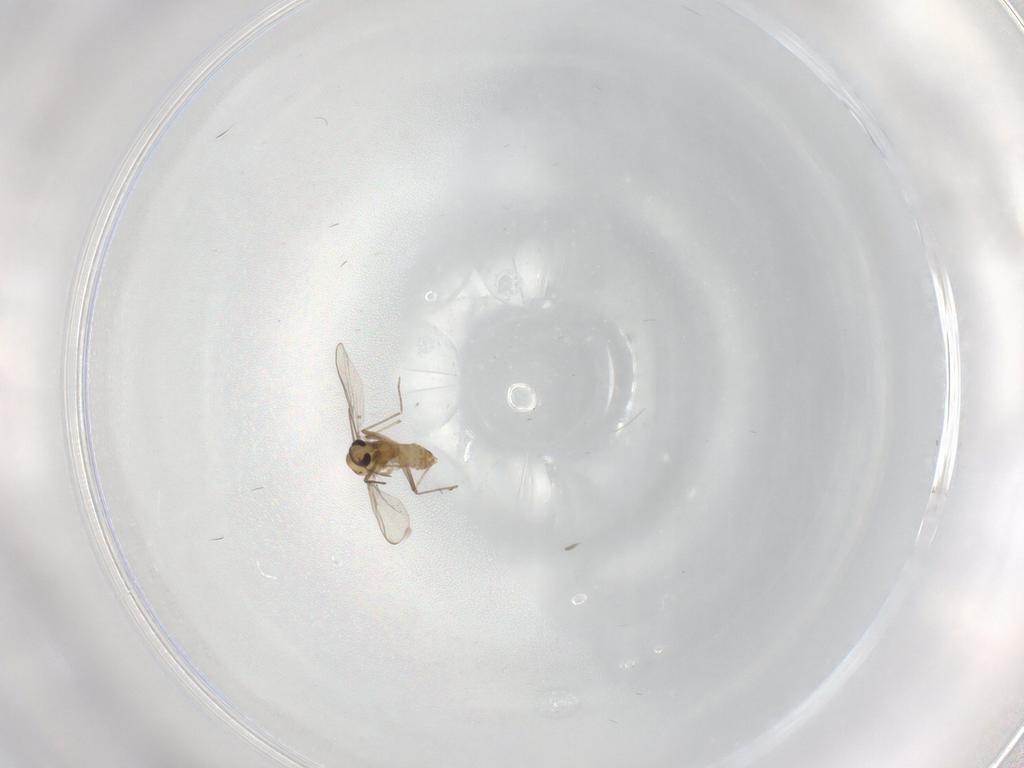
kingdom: Animalia
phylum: Arthropoda
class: Insecta
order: Diptera
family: Chironomidae
